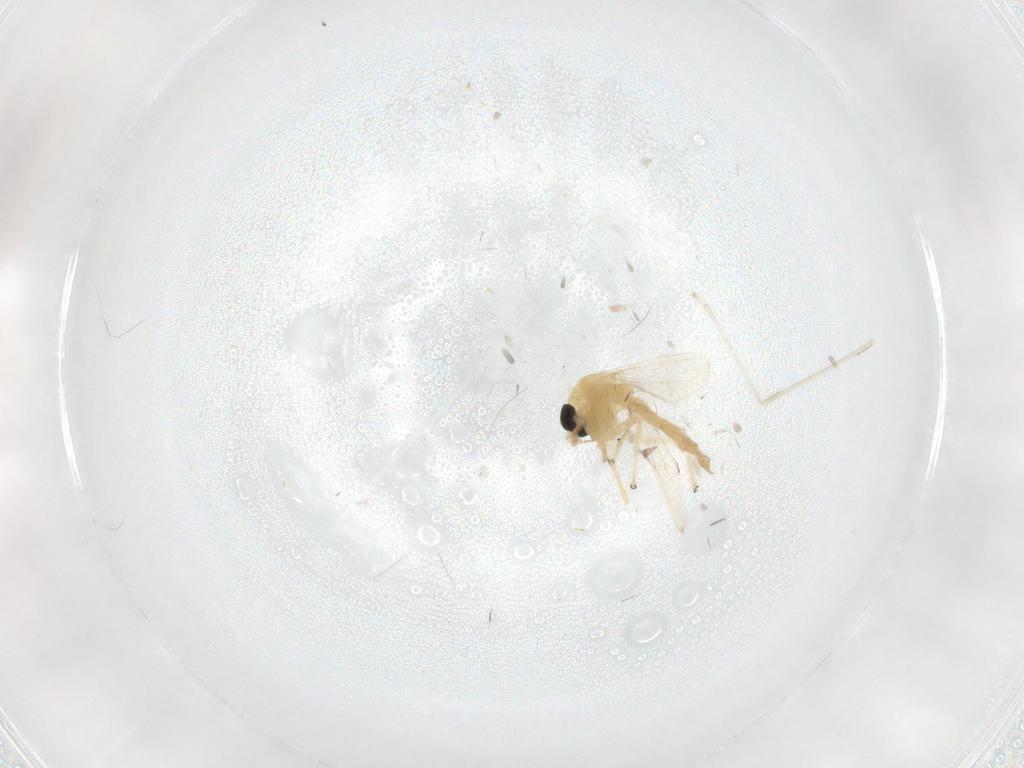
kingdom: Animalia
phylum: Arthropoda
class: Insecta
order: Diptera
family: Chironomidae
